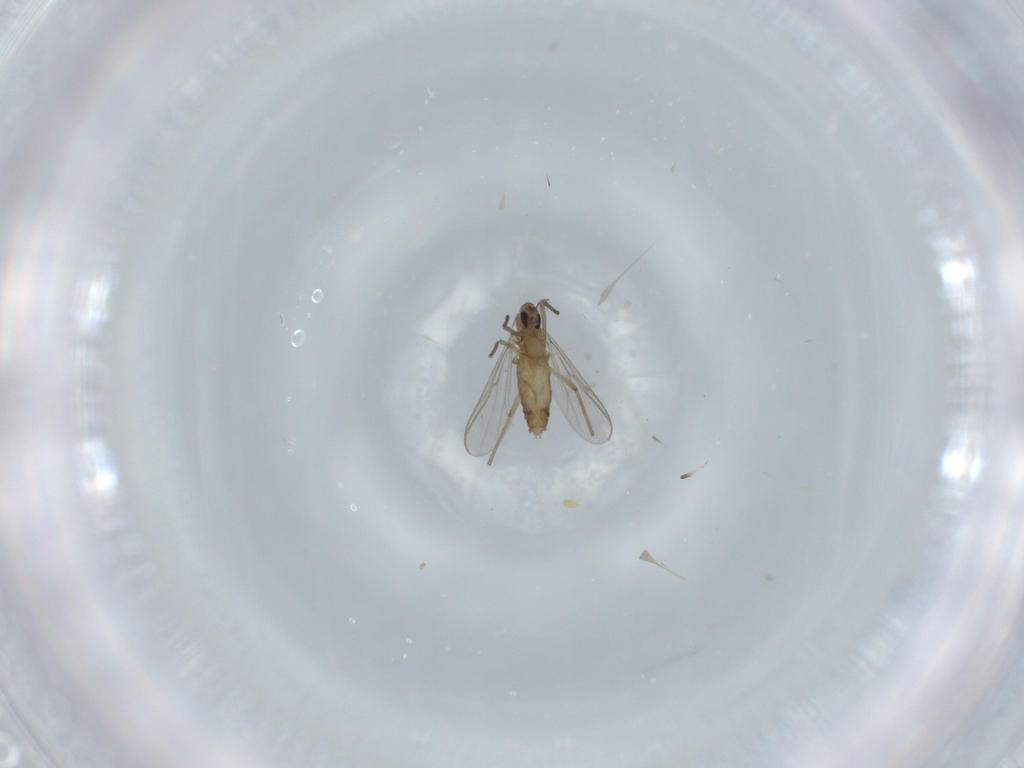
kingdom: Animalia
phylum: Arthropoda
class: Insecta
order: Diptera
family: Chironomidae
